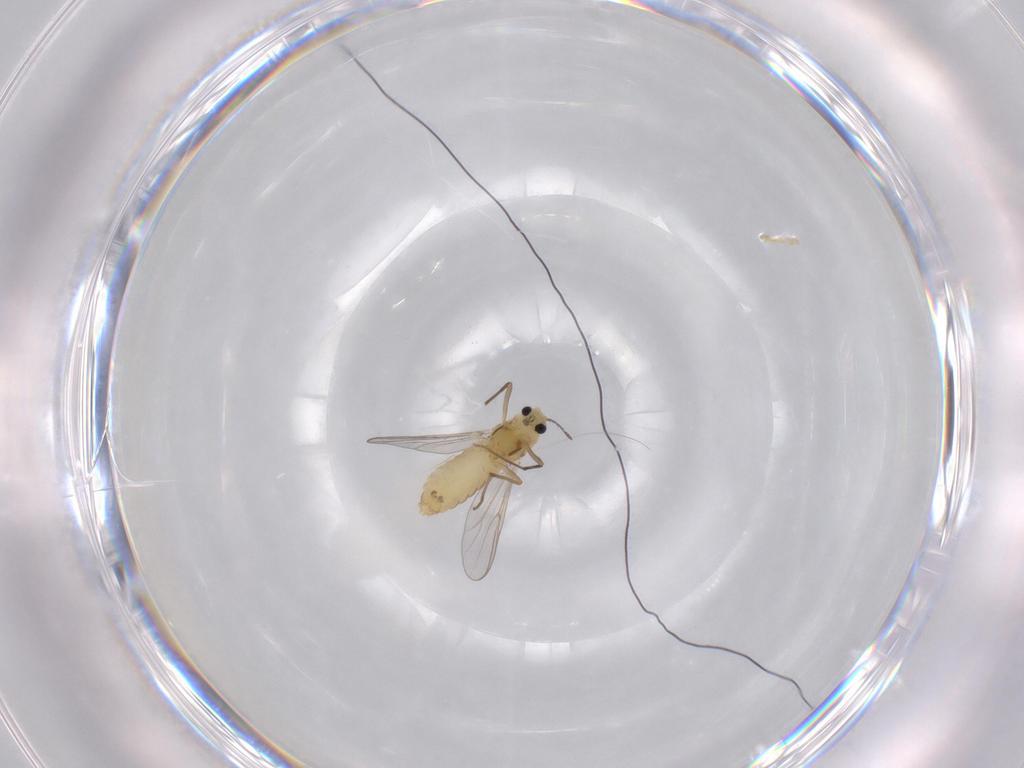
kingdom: Animalia
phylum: Arthropoda
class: Insecta
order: Diptera
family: Chironomidae
